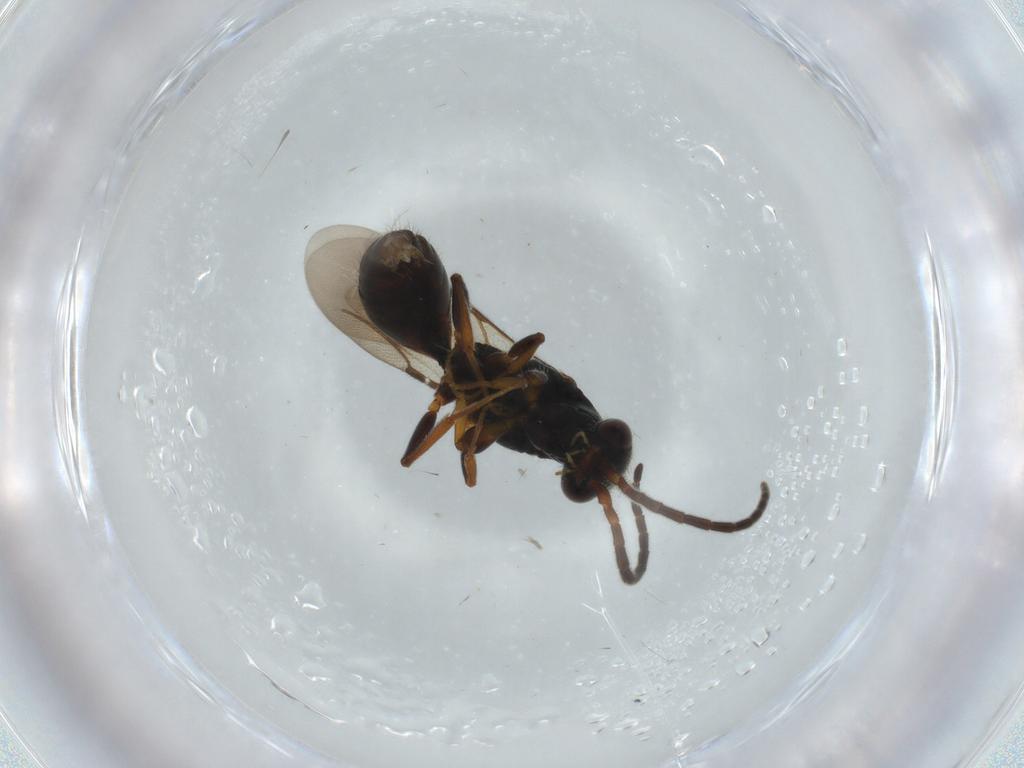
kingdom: Animalia
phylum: Arthropoda
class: Insecta
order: Hymenoptera
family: Bethylidae
